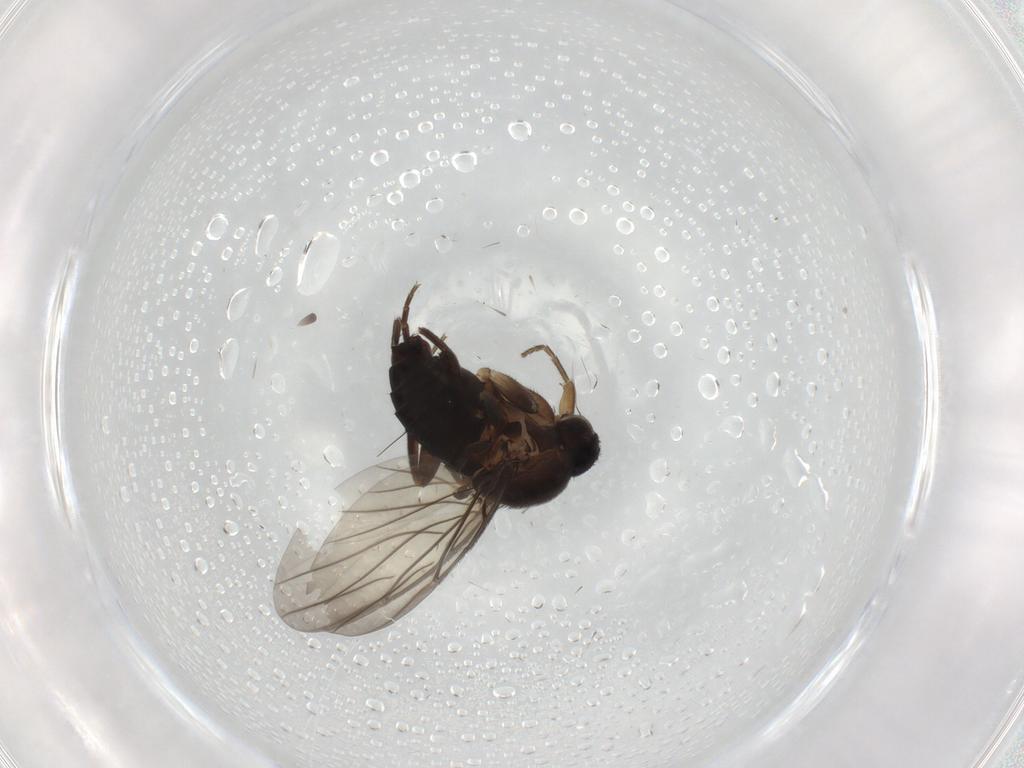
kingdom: Animalia
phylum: Arthropoda
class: Insecta
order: Diptera
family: Cecidomyiidae
